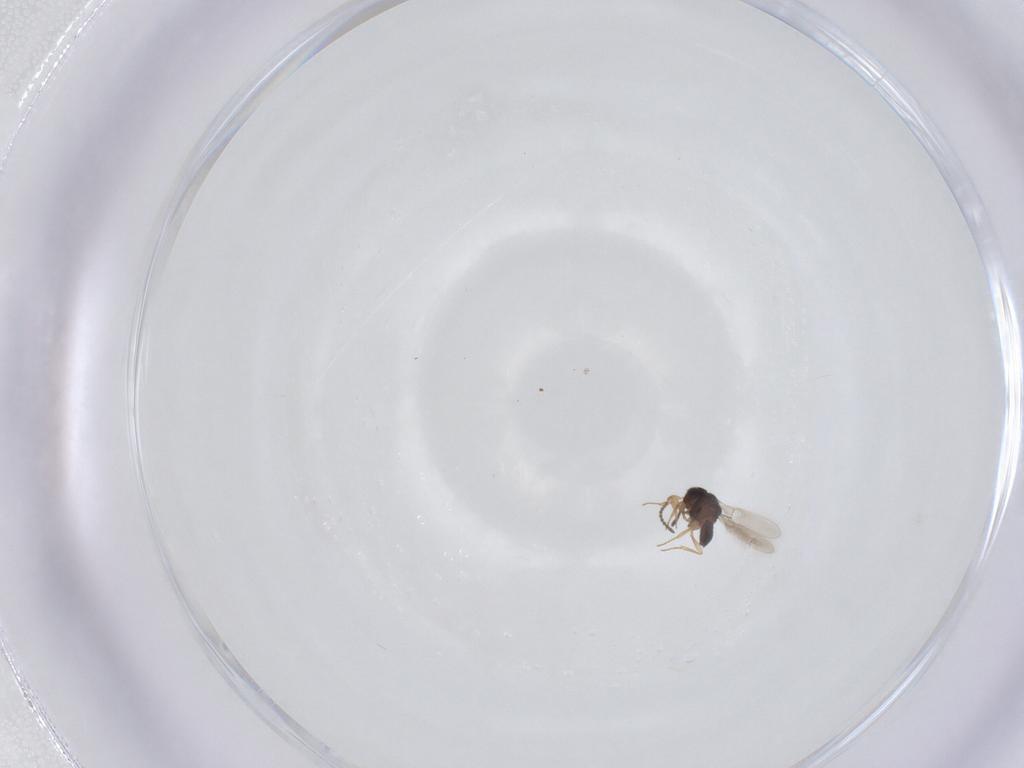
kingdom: Animalia
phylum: Arthropoda
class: Insecta
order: Hymenoptera
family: Scelionidae
